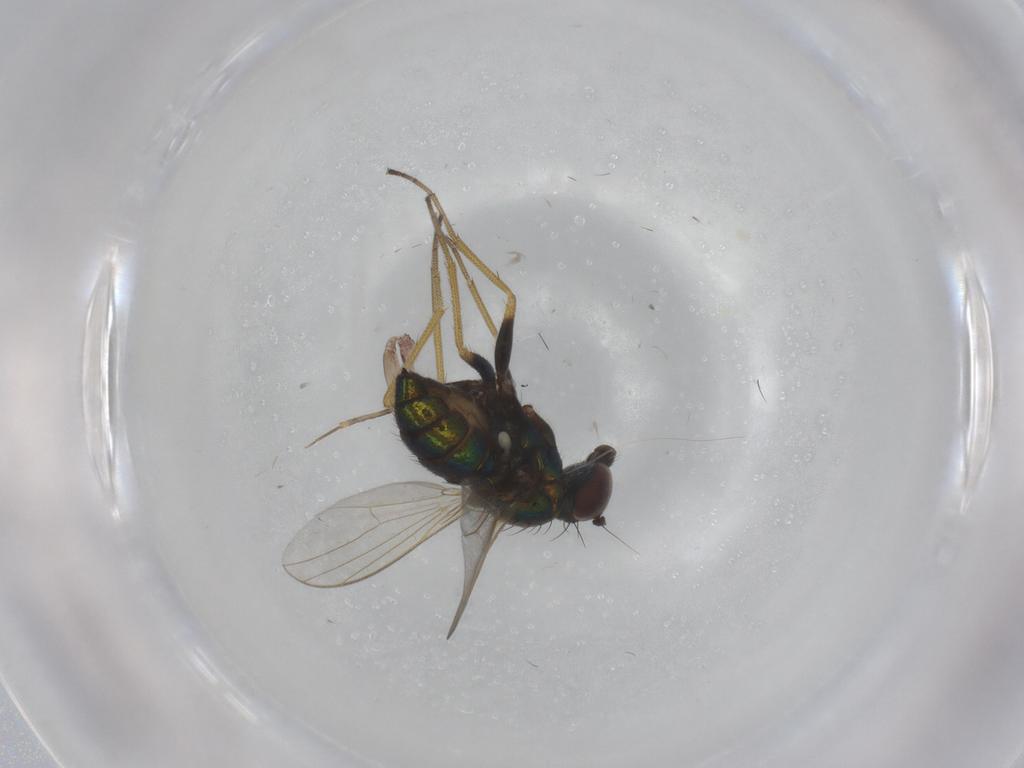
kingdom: Animalia
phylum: Arthropoda
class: Insecta
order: Diptera
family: Dolichopodidae
